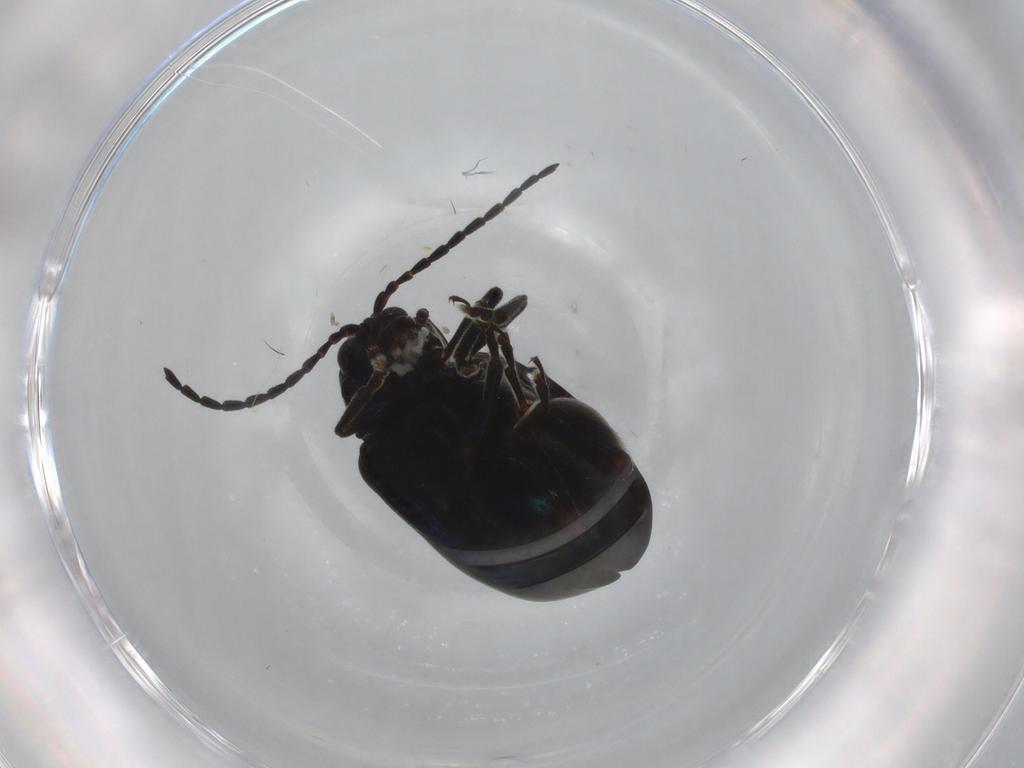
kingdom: Animalia
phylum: Arthropoda
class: Insecta
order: Coleoptera
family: Chrysomelidae
